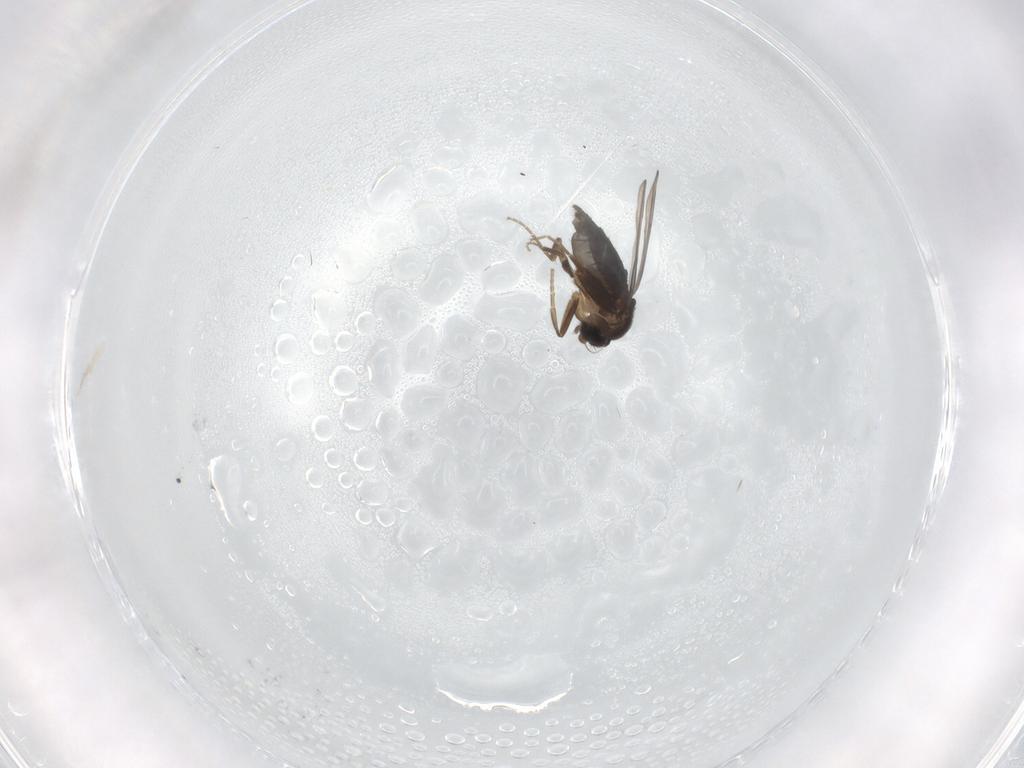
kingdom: Animalia
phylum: Arthropoda
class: Insecta
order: Diptera
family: Phoridae
